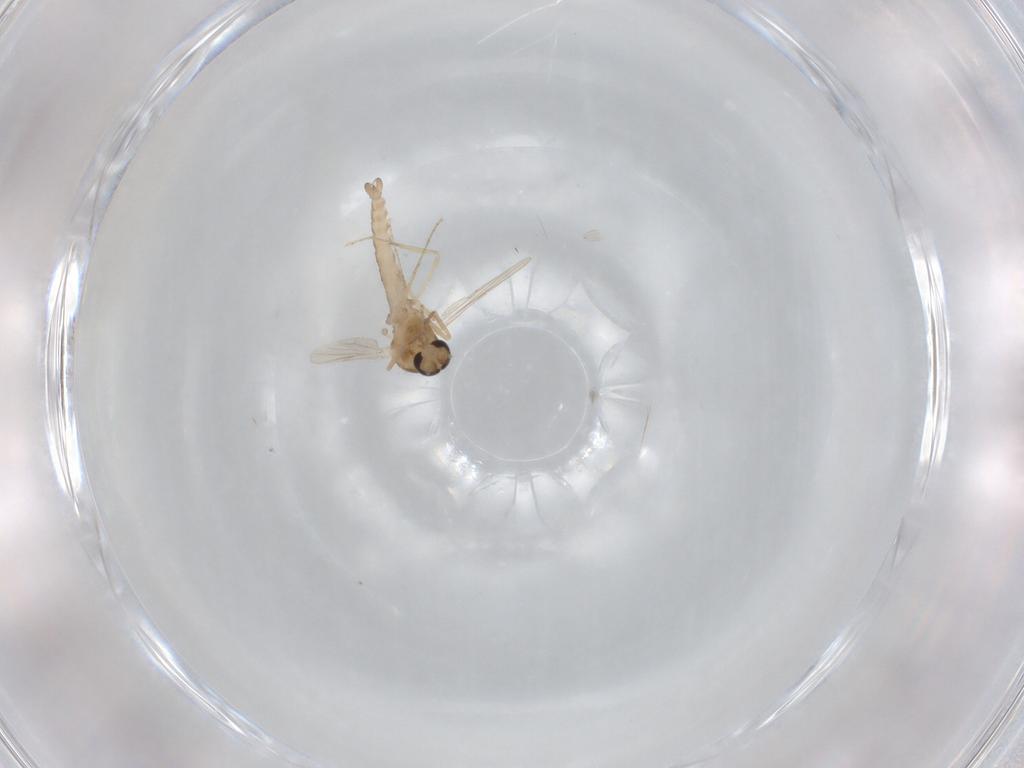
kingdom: Animalia
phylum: Arthropoda
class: Insecta
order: Diptera
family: Ceratopogonidae
